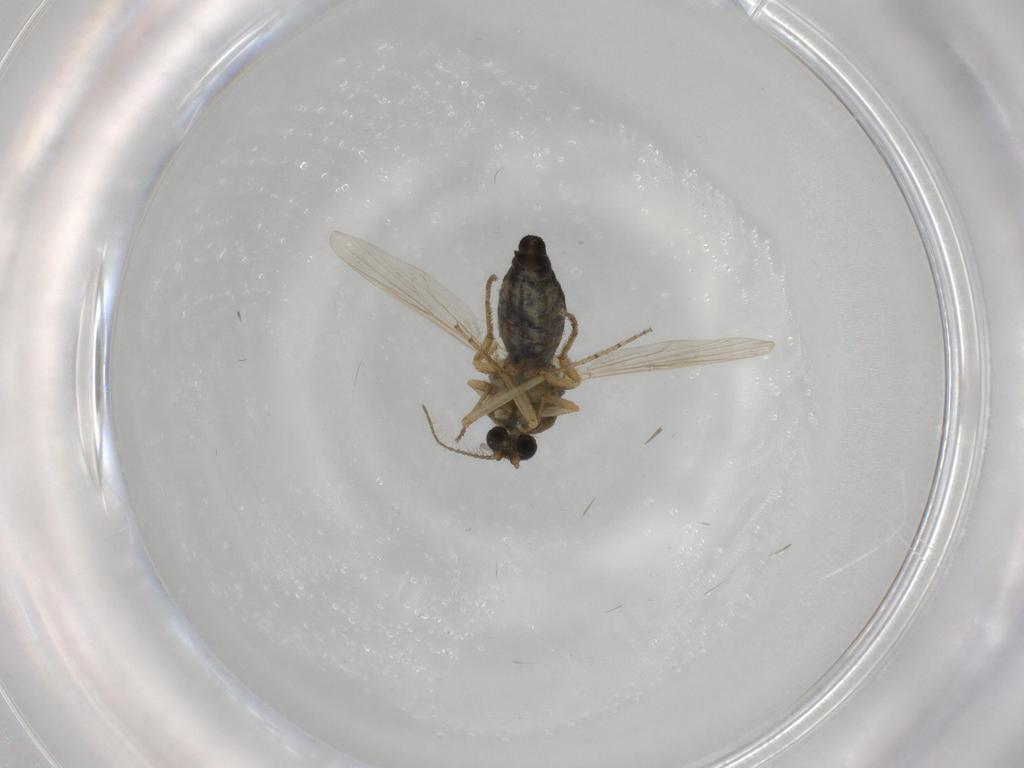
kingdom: Animalia
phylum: Arthropoda
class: Insecta
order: Diptera
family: Ceratopogonidae
